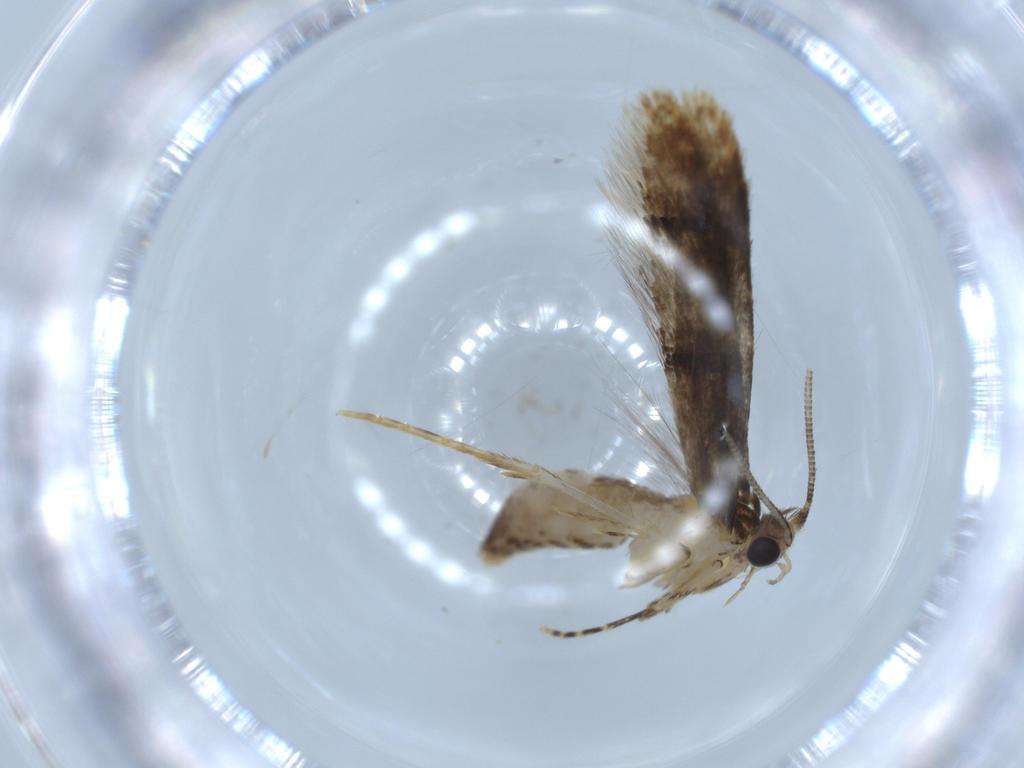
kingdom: Animalia
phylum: Arthropoda
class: Insecta
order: Lepidoptera
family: Tineidae
